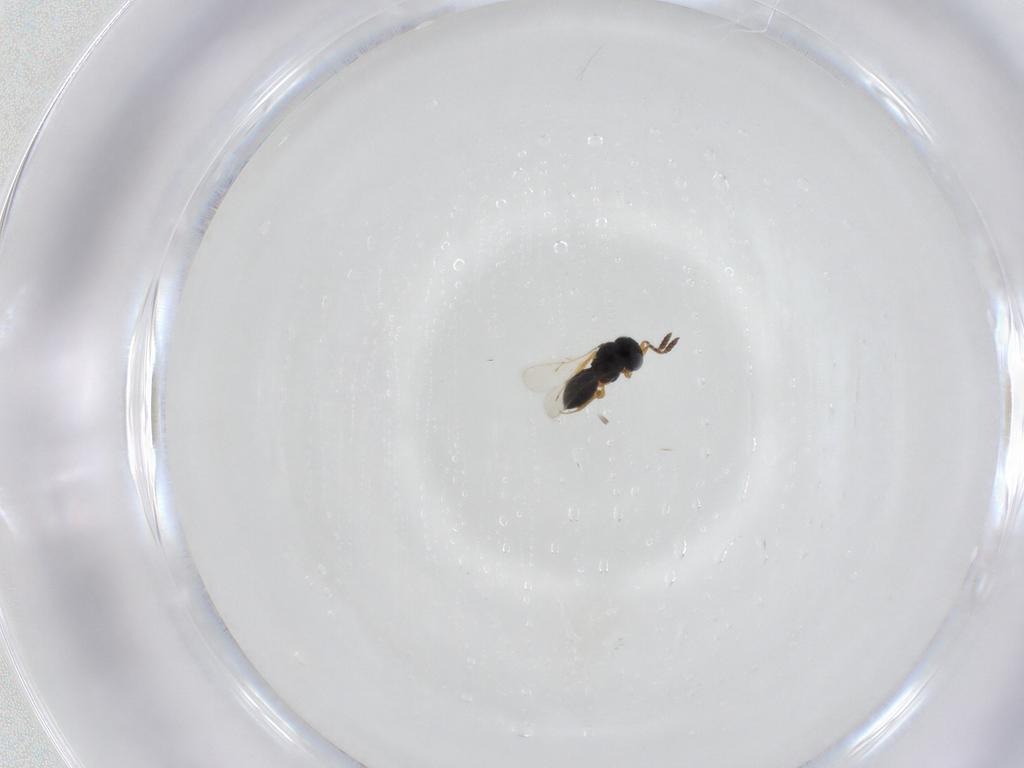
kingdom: Animalia
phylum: Arthropoda
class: Insecta
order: Hymenoptera
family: Scelionidae
